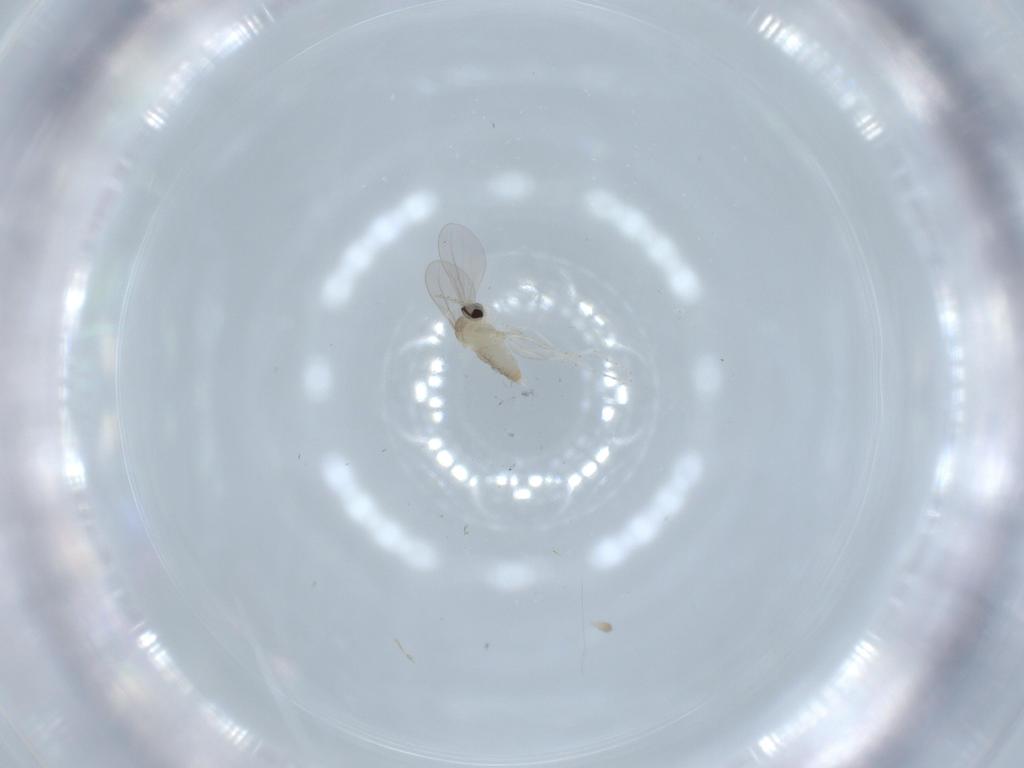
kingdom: Animalia
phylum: Arthropoda
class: Insecta
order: Diptera
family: Cecidomyiidae
